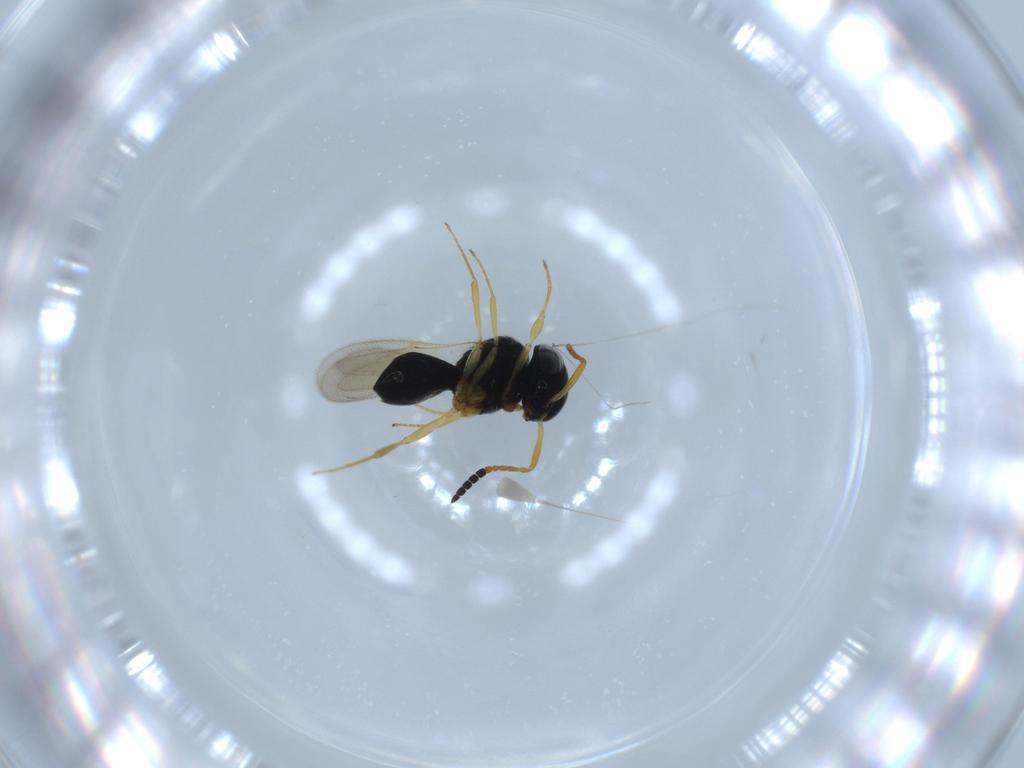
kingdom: Animalia
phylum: Arthropoda
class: Insecta
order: Hymenoptera
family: Scelionidae
